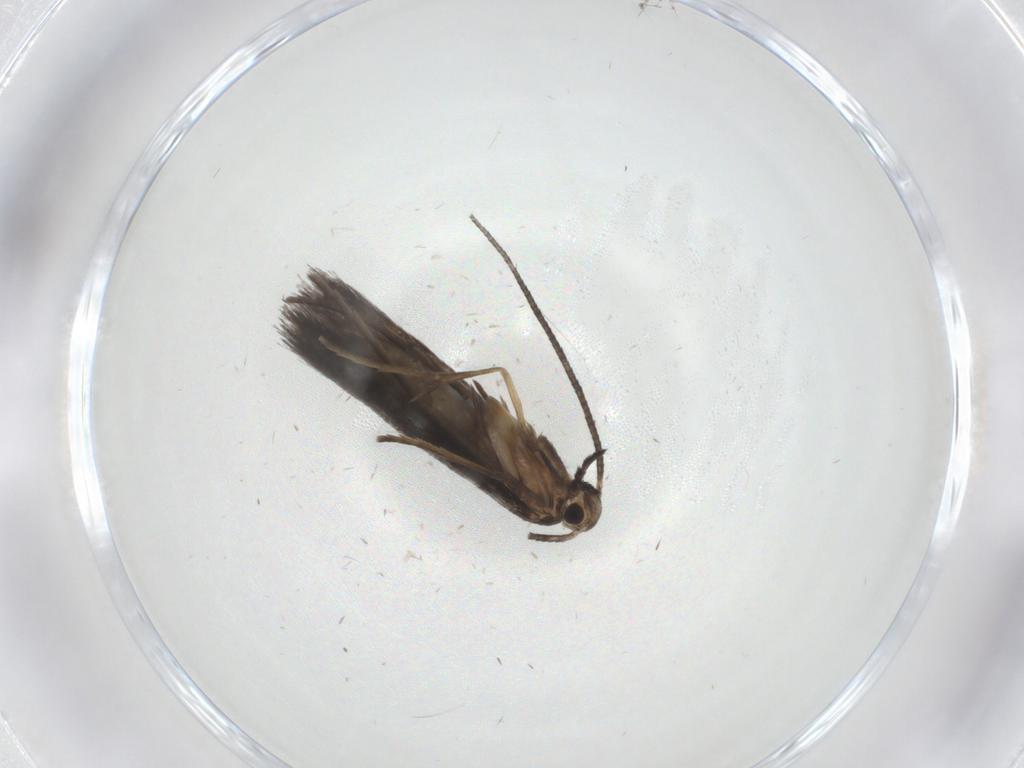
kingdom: Animalia
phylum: Arthropoda
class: Insecta
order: Lepidoptera
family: Gracillariidae
